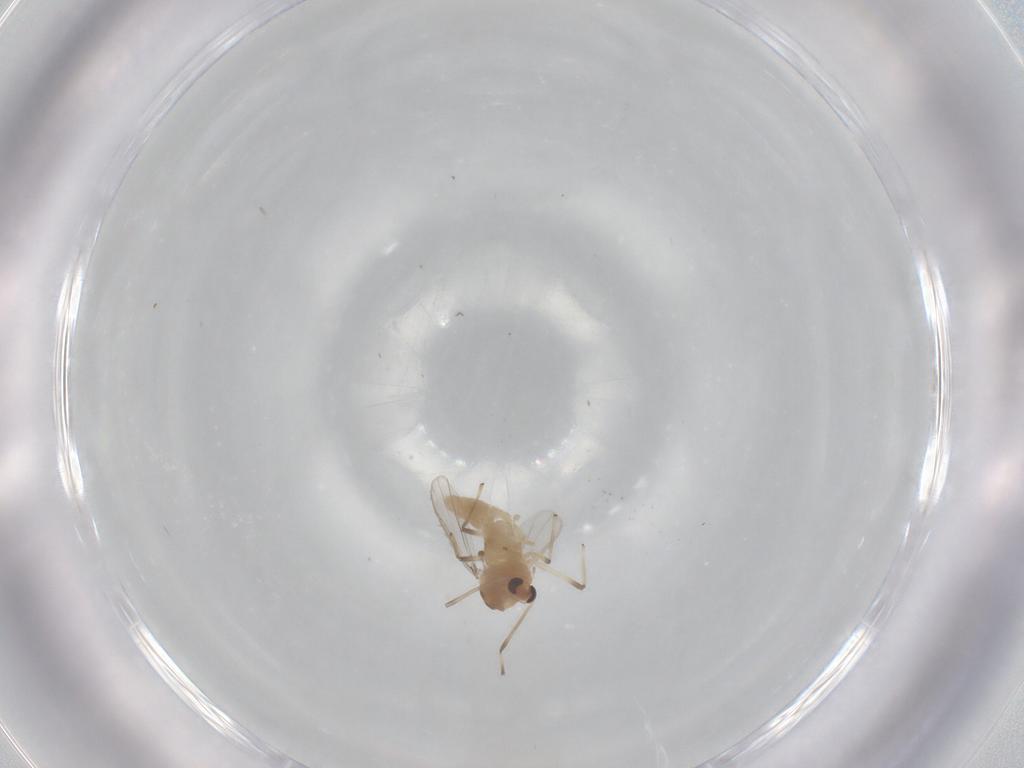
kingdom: Animalia
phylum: Arthropoda
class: Insecta
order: Diptera
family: Chironomidae
